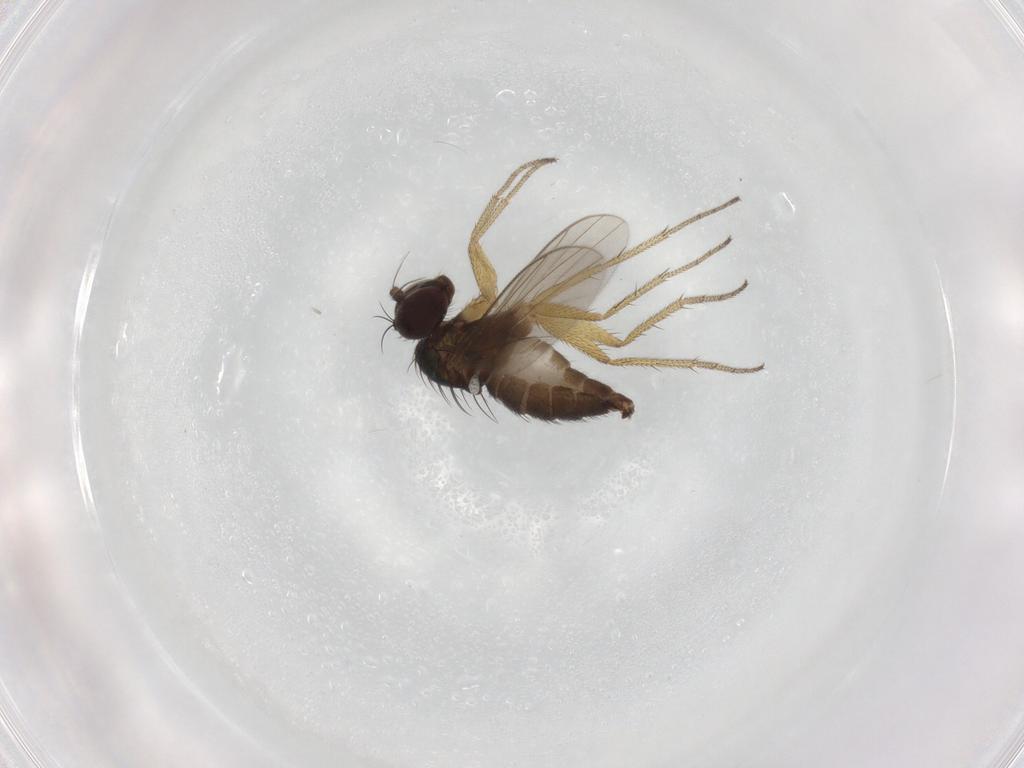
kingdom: Animalia
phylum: Arthropoda
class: Insecta
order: Diptera
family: Dolichopodidae
